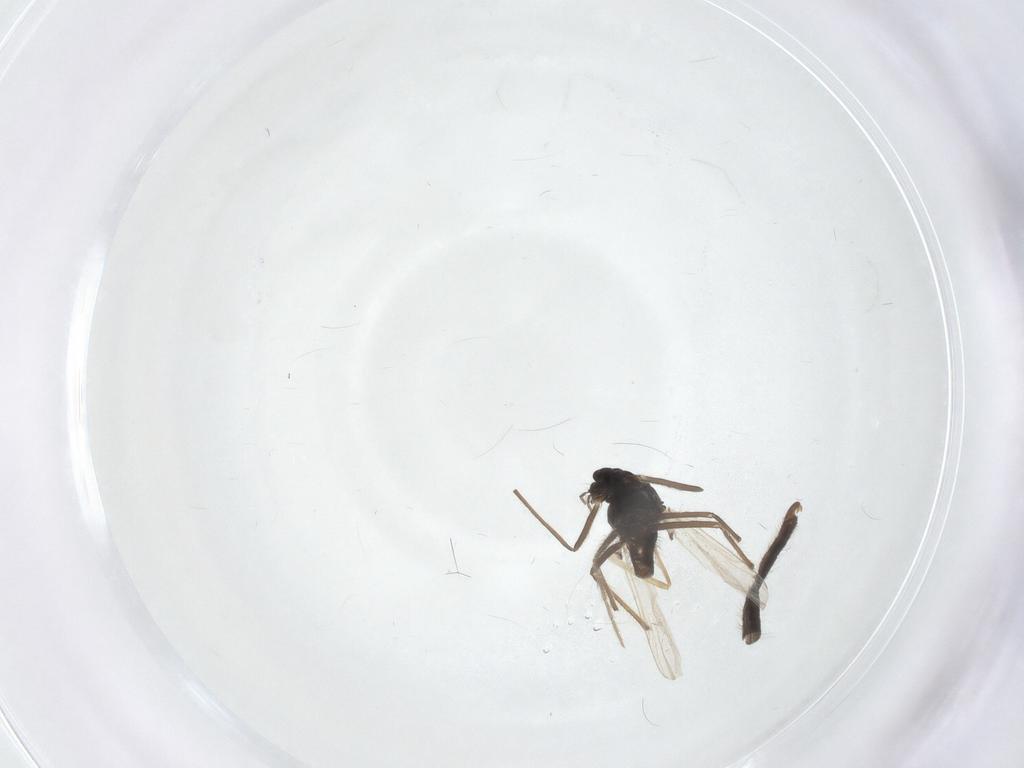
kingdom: Animalia
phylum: Arthropoda
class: Insecta
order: Diptera
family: Chironomidae
